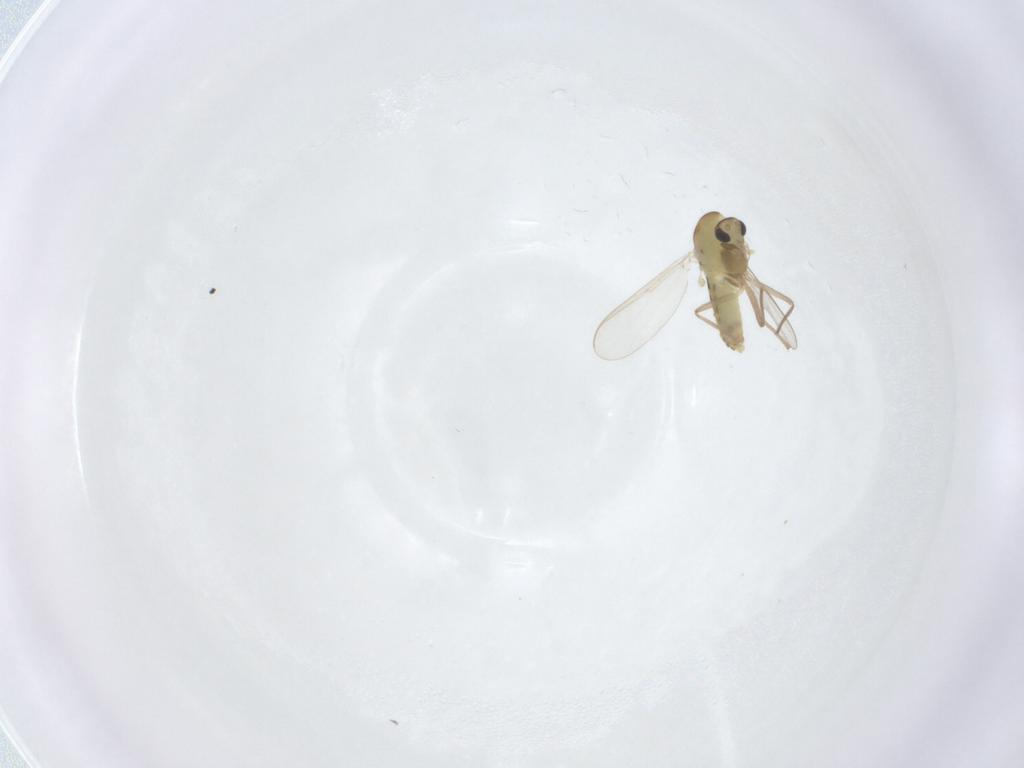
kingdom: Animalia
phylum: Arthropoda
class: Insecta
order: Diptera
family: Chironomidae
